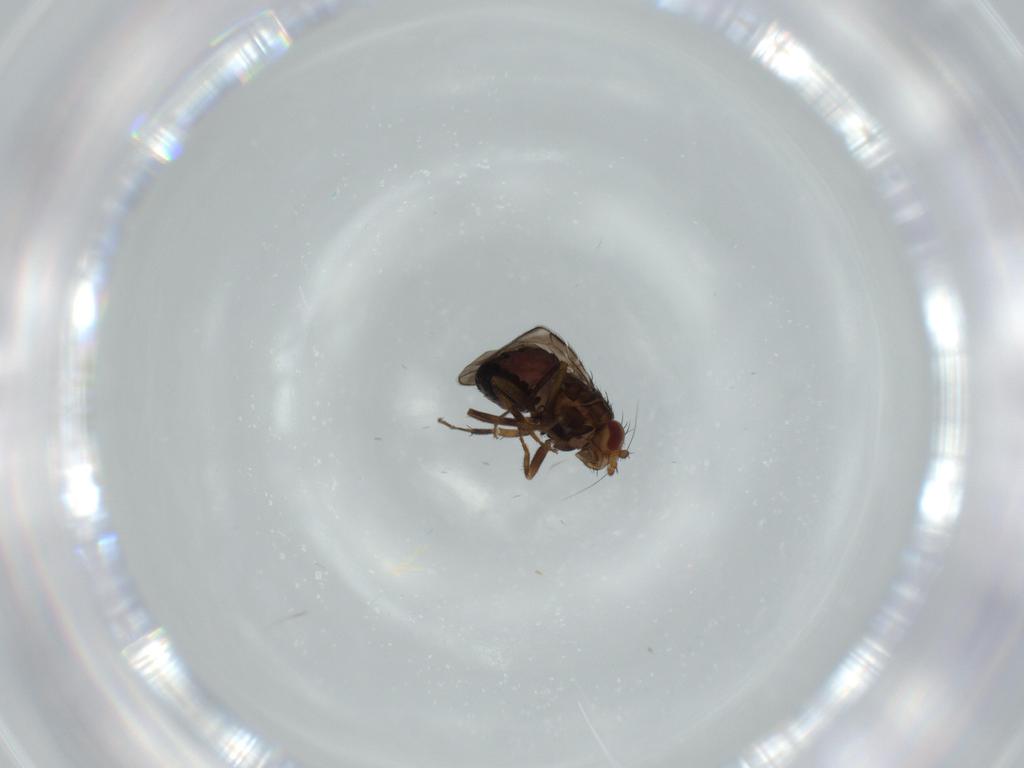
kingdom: Animalia
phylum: Arthropoda
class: Insecta
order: Diptera
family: Sphaeroceridae
